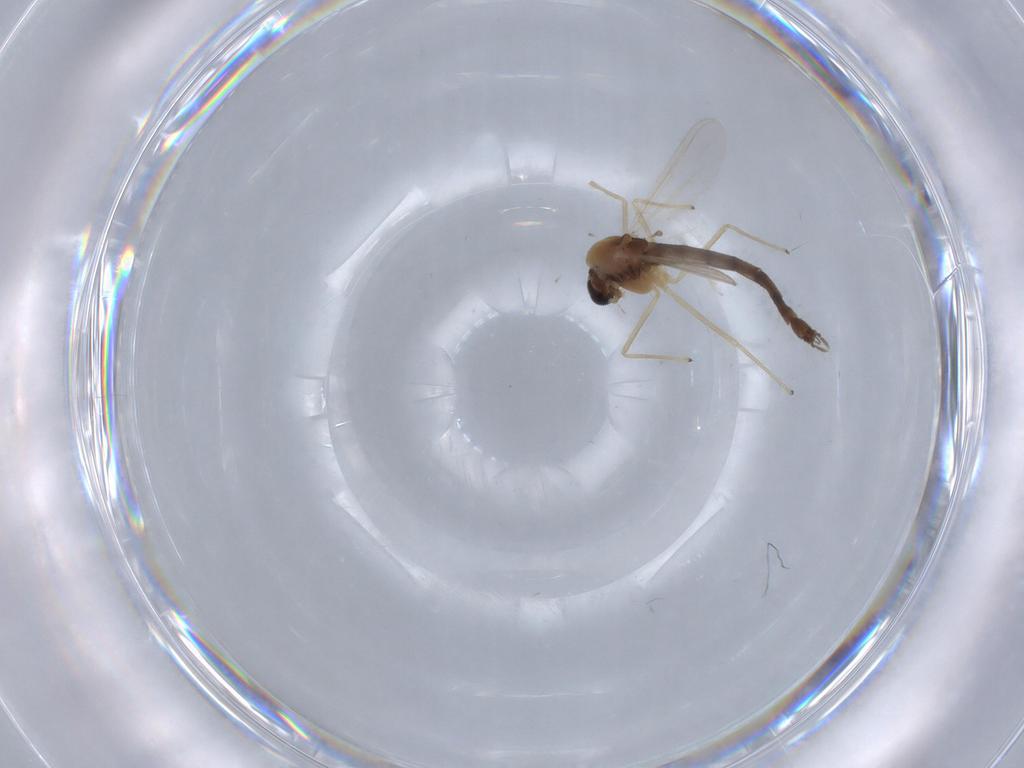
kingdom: Animalia
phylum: Arthropoda
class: Insecta
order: Diptera
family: Chironomidae
